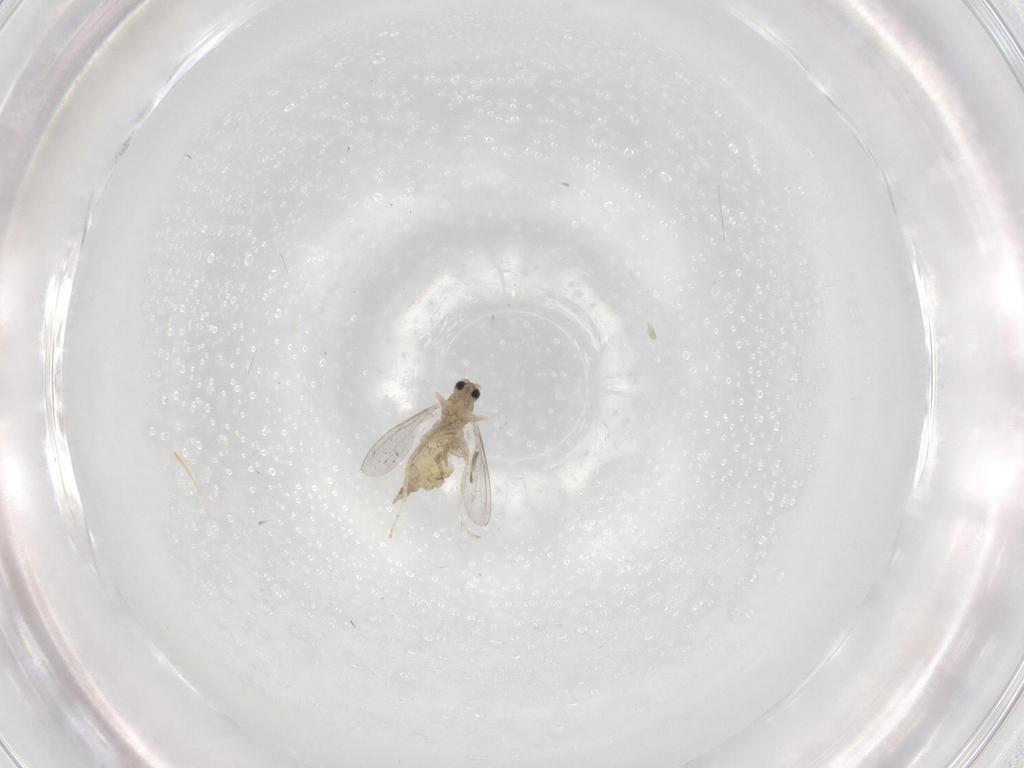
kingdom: Animalia
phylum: Arthropoda
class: Insecta
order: Diptera
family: Cecidomyiidae
